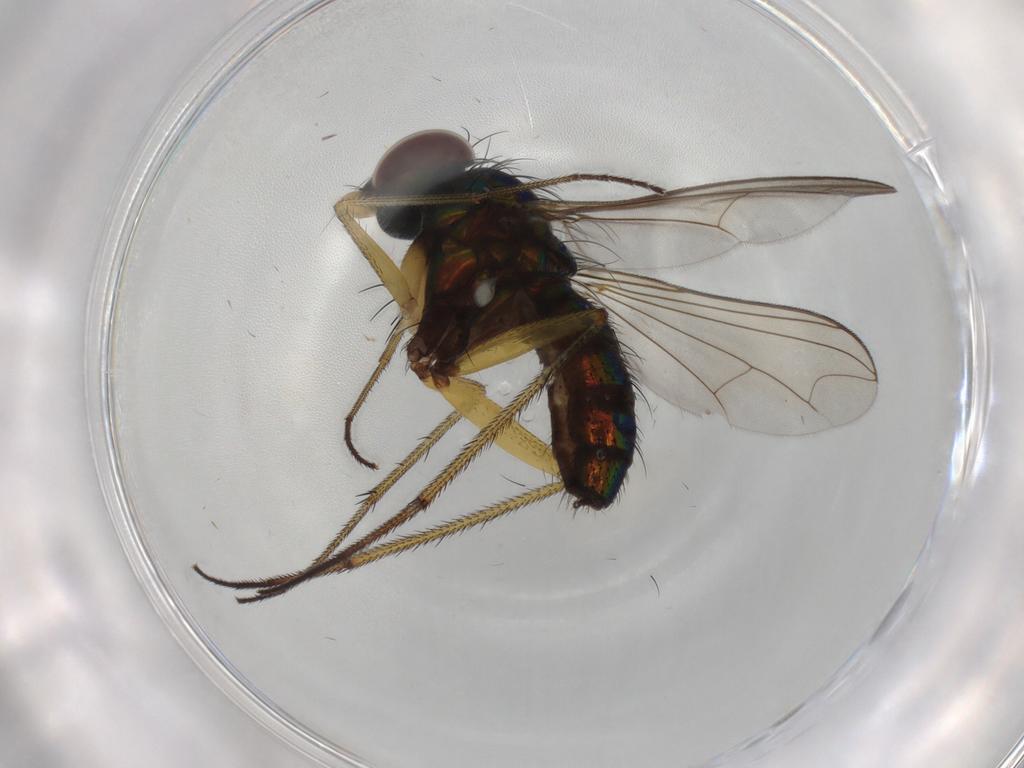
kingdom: Animalia
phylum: Arthropoda
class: Insecta
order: Diptera
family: Dolichopodidae
